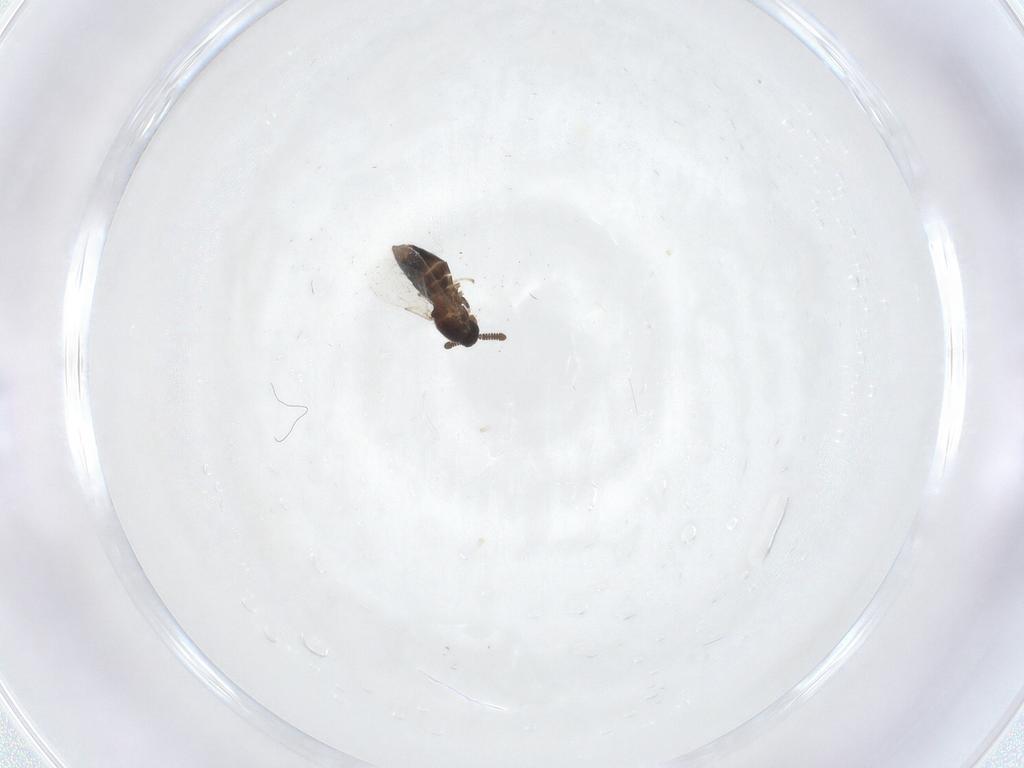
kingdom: Animalia
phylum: Arthropoda
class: Insecta
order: Diptera
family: Scatopsidae
